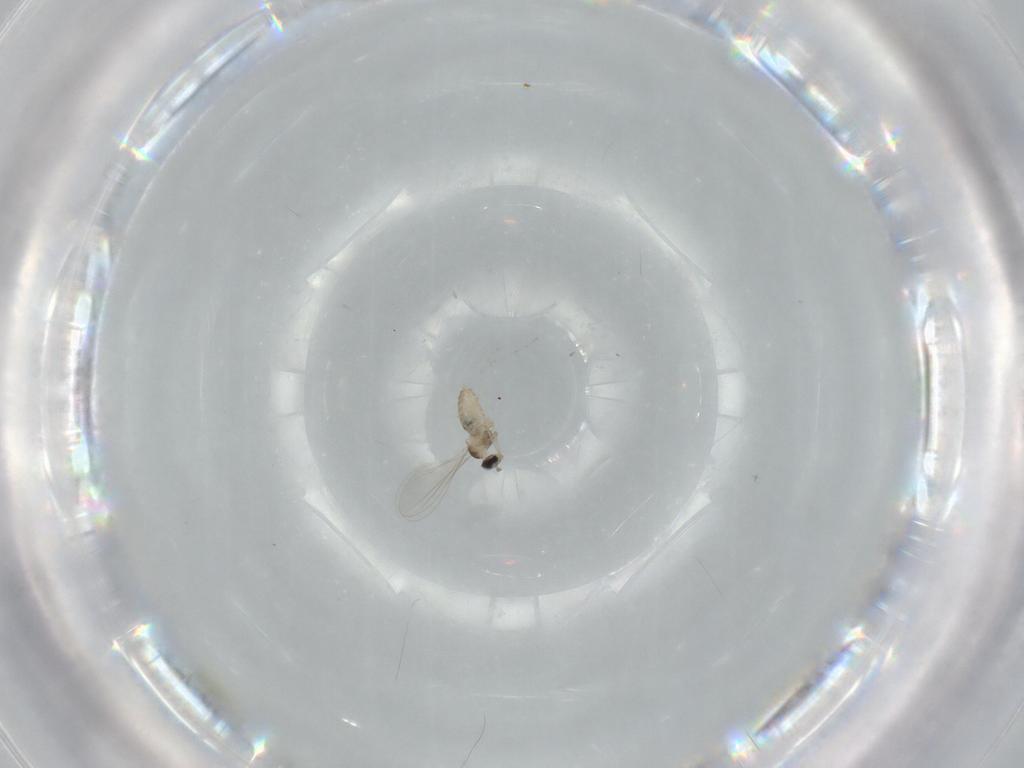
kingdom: Animalia
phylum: Arthropoda
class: Insecta
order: Diptera
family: Cecidomyiidae
